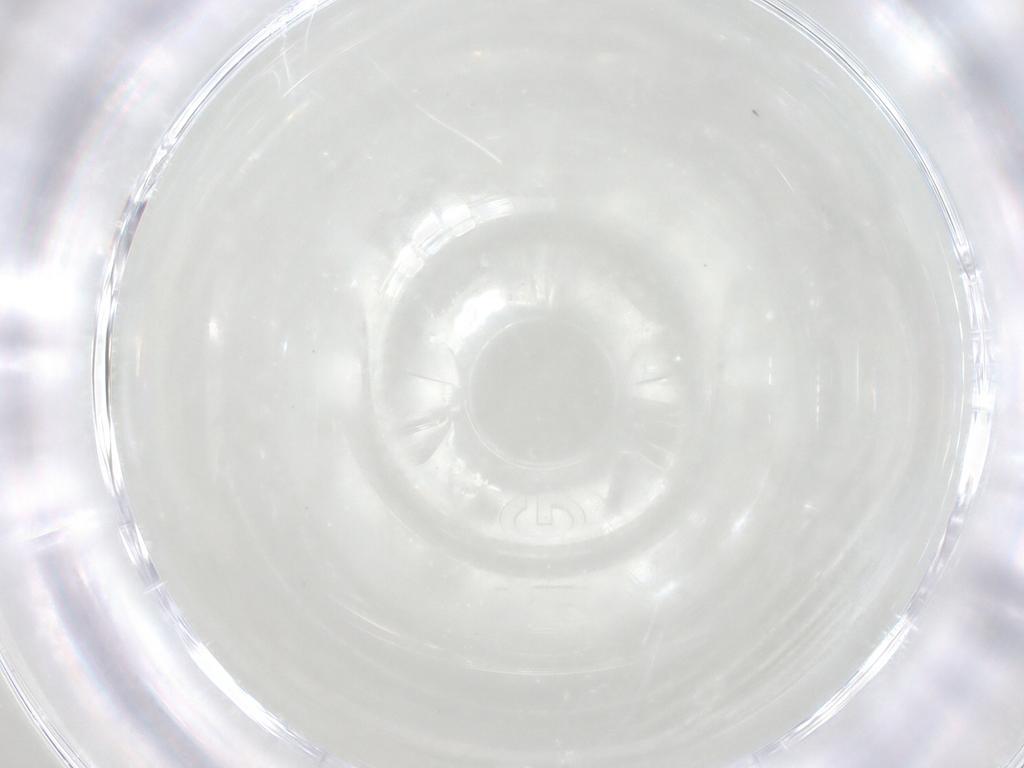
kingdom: Animalia
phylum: Arthropoda
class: Insecta
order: Diptera
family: Mycetophilidae
